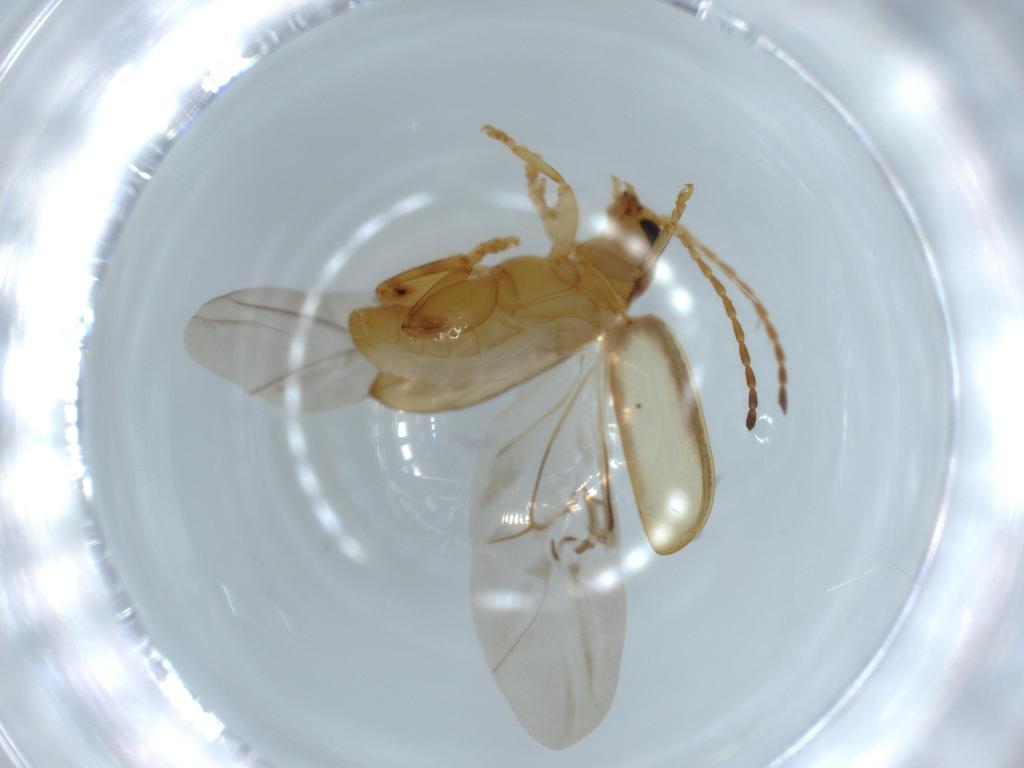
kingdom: Animalia
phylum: Arthropoda
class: Insecta
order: Coleoptera
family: Chrysomelidae
